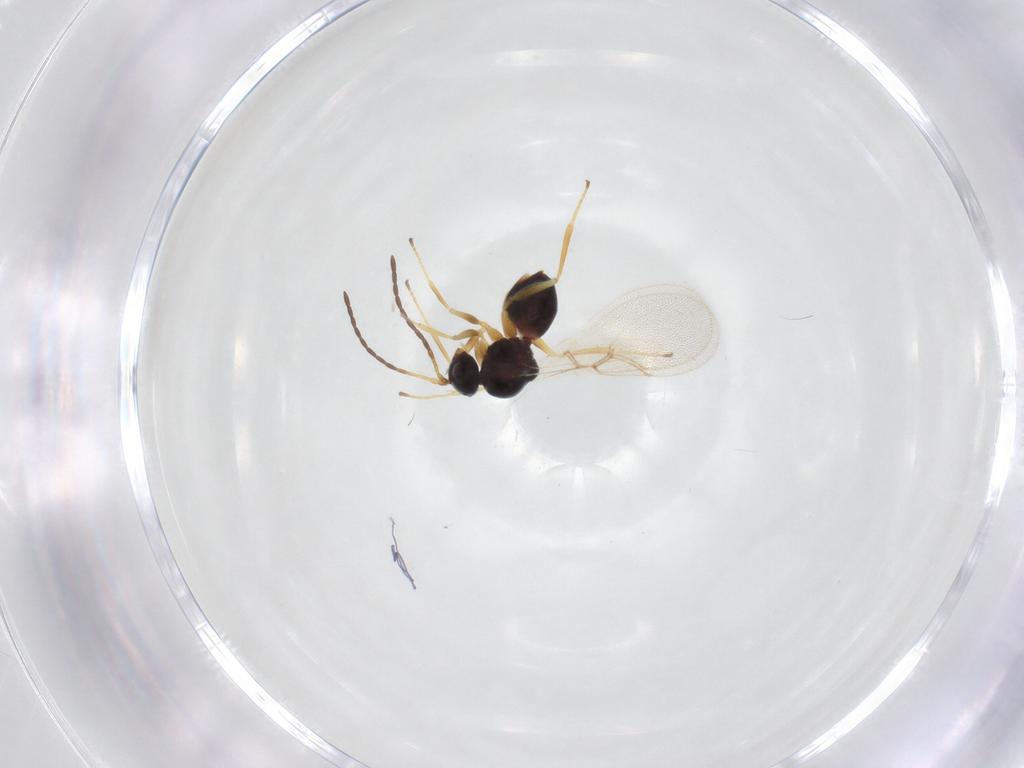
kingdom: Animalia
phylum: Arthropoda
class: Insecta
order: Hymenoptera
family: Figitidae
